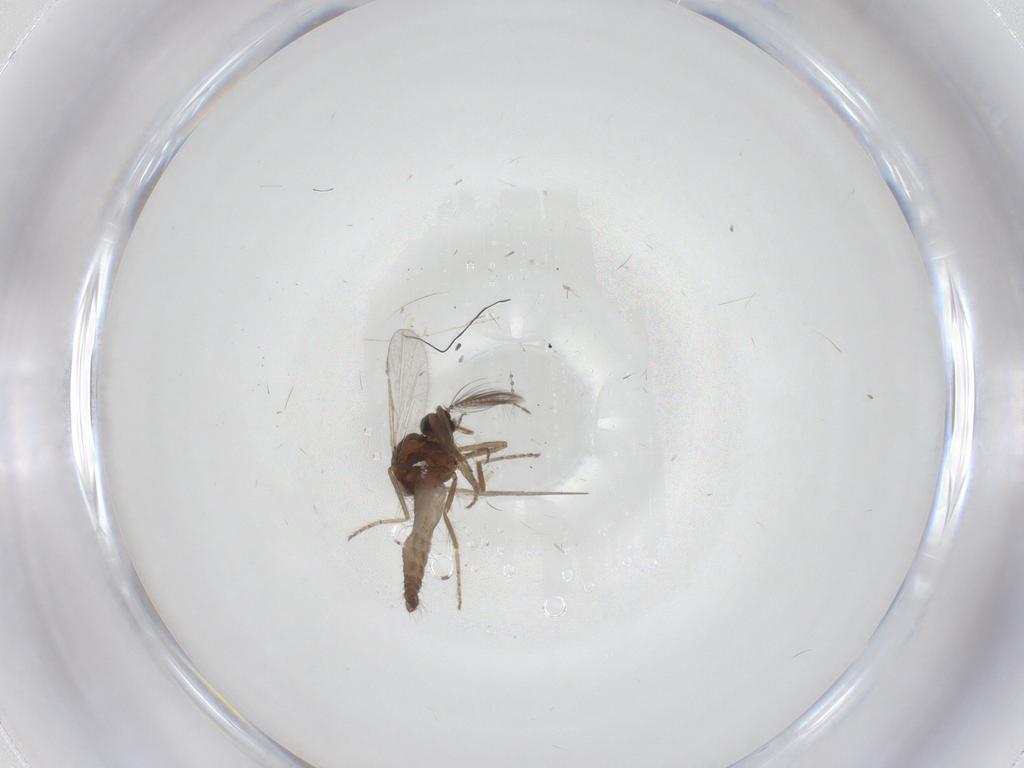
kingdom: Animalia
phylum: Arthropoda
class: Insecta
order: Diptera
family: Ceratopogonidae
